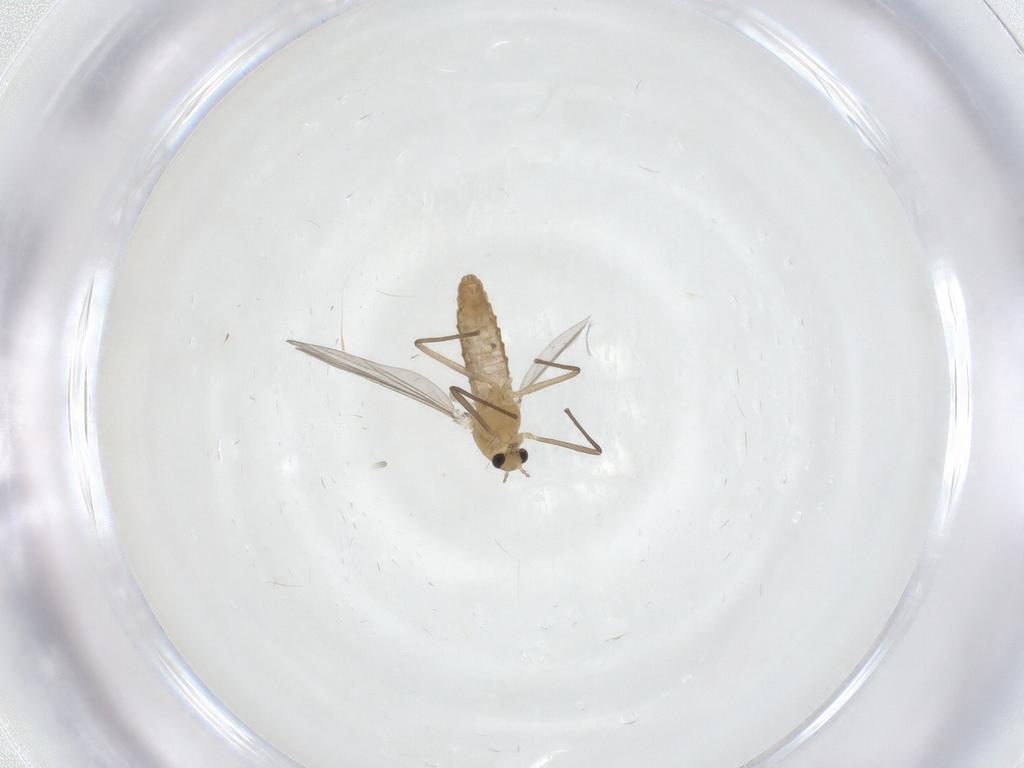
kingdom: Animalia
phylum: Arthropoda
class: Insecta
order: Diptera
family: Chironomidae
